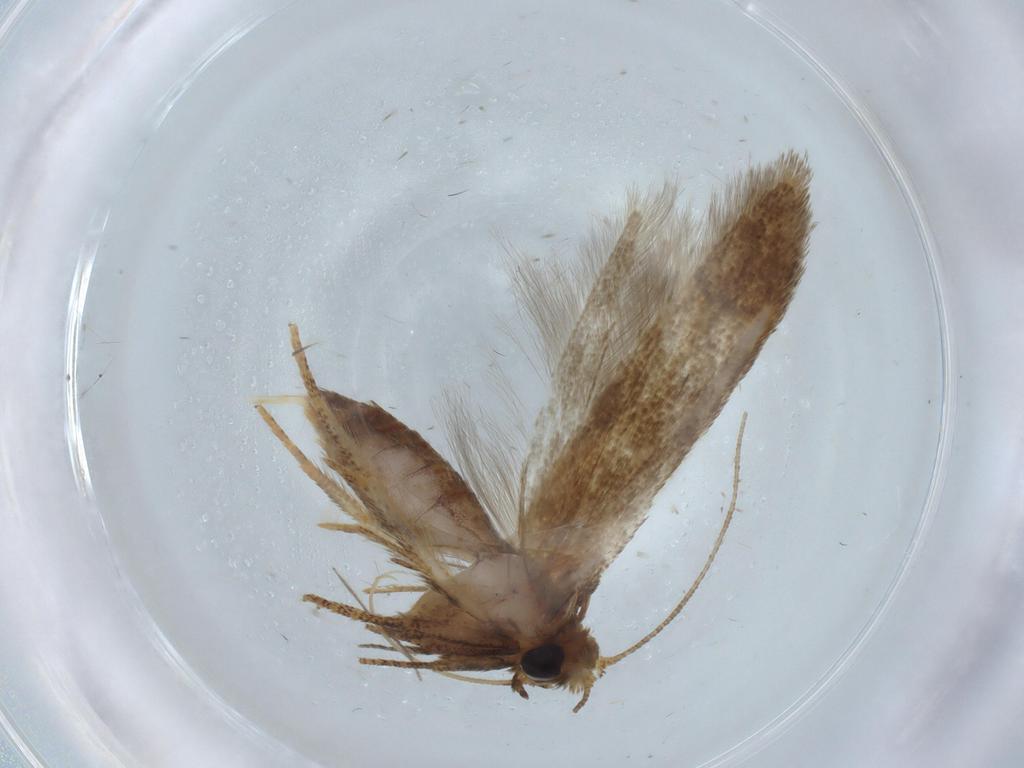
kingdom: Animalia
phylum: Arthropoda
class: Insecta
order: Lepidoptera
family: Blastobasidae
